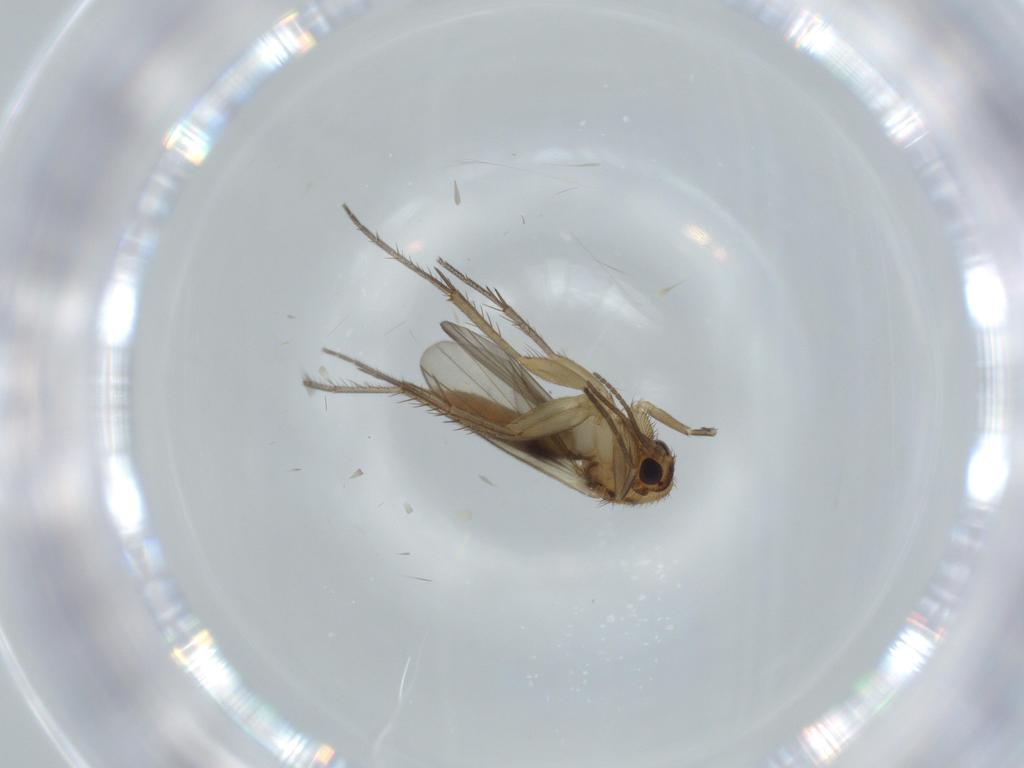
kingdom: Animalia
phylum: Arthropoda
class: Insecta
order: Diptera
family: Mycetophilidae
